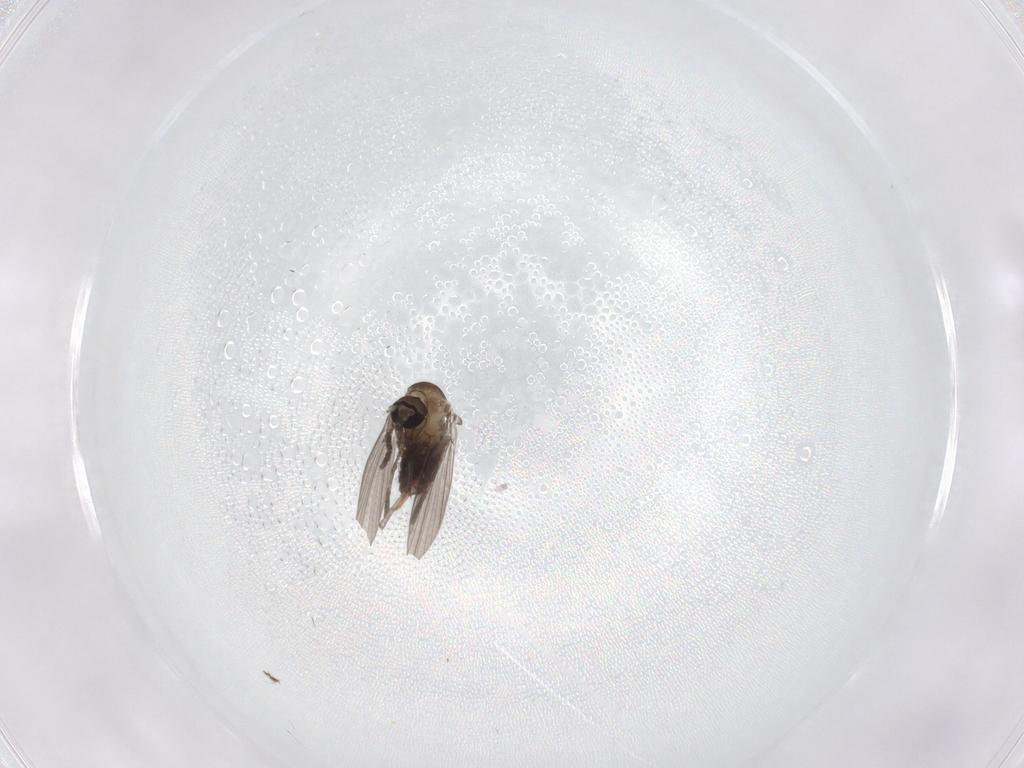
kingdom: Animalia
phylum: Arthropoda
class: Insecta
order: Diptera
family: Psychodidae
